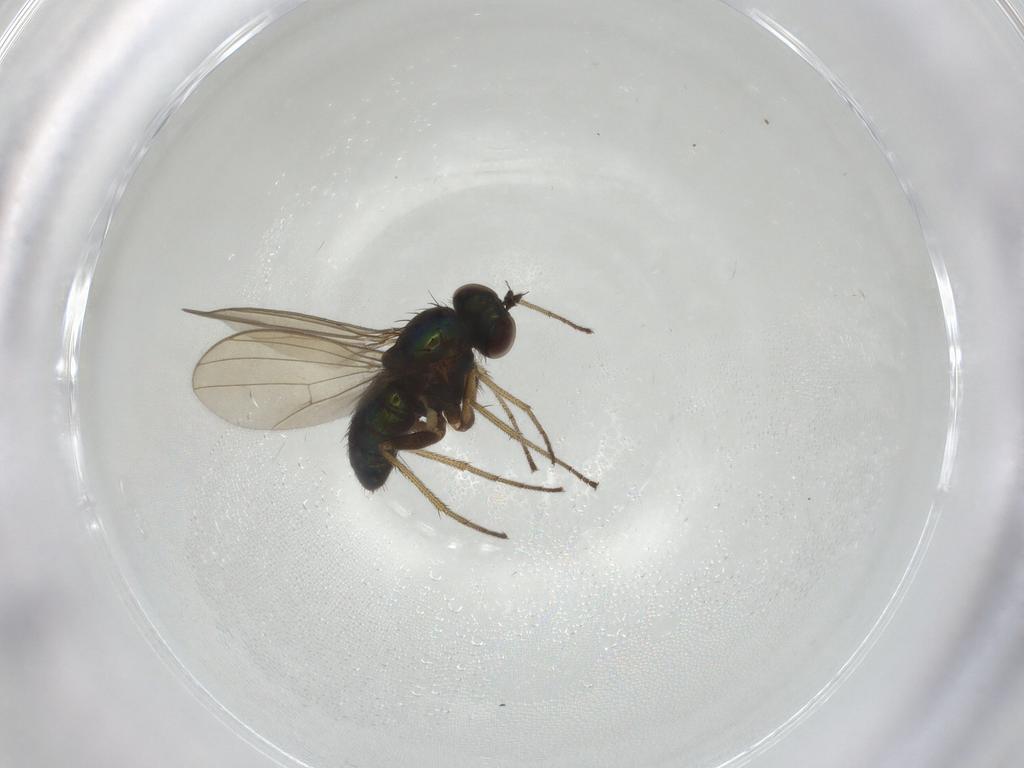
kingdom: Animalia
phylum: Arthropoda
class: Insecta
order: Diptera
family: Dolichopodidae
